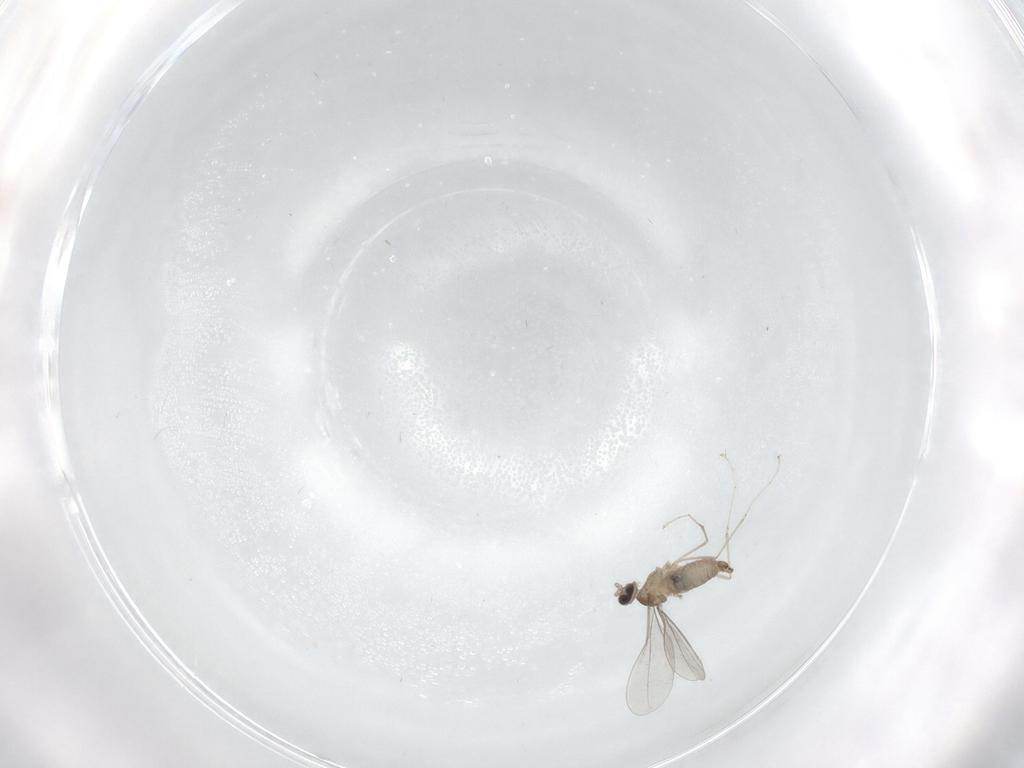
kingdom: Animalia
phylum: Arthropoda
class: Insecta
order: Diptera
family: Cecidomyiidae
